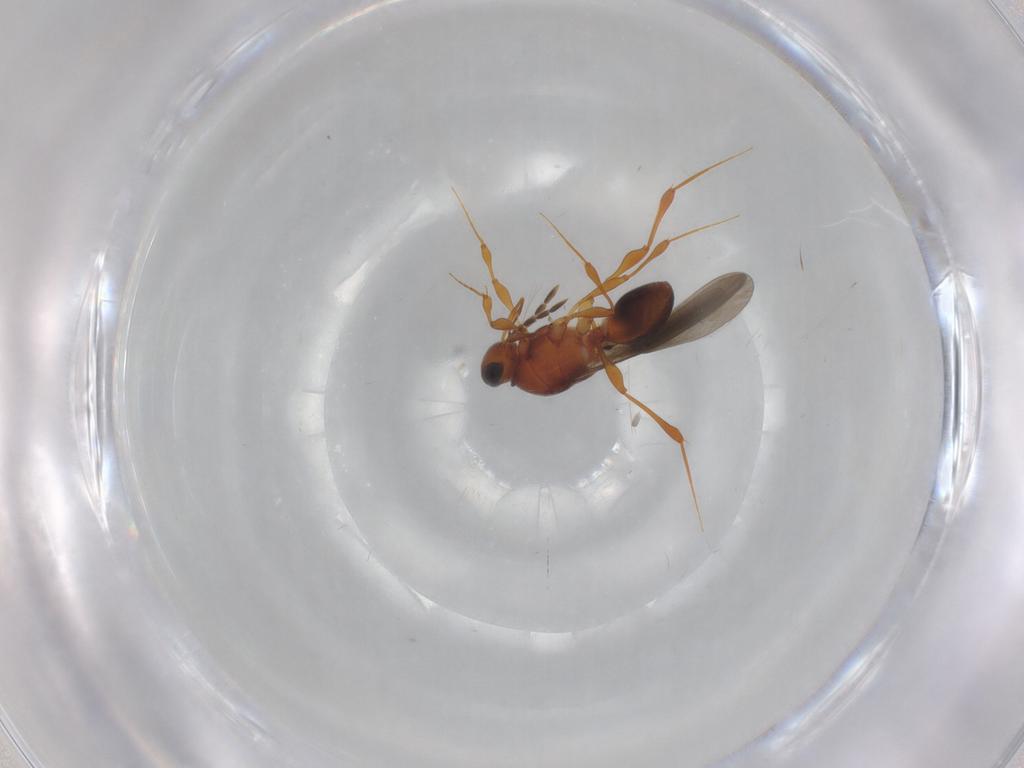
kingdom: Animalia
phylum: Arthropoda
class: Insecta
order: Hymenoptera
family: Platygastridae
